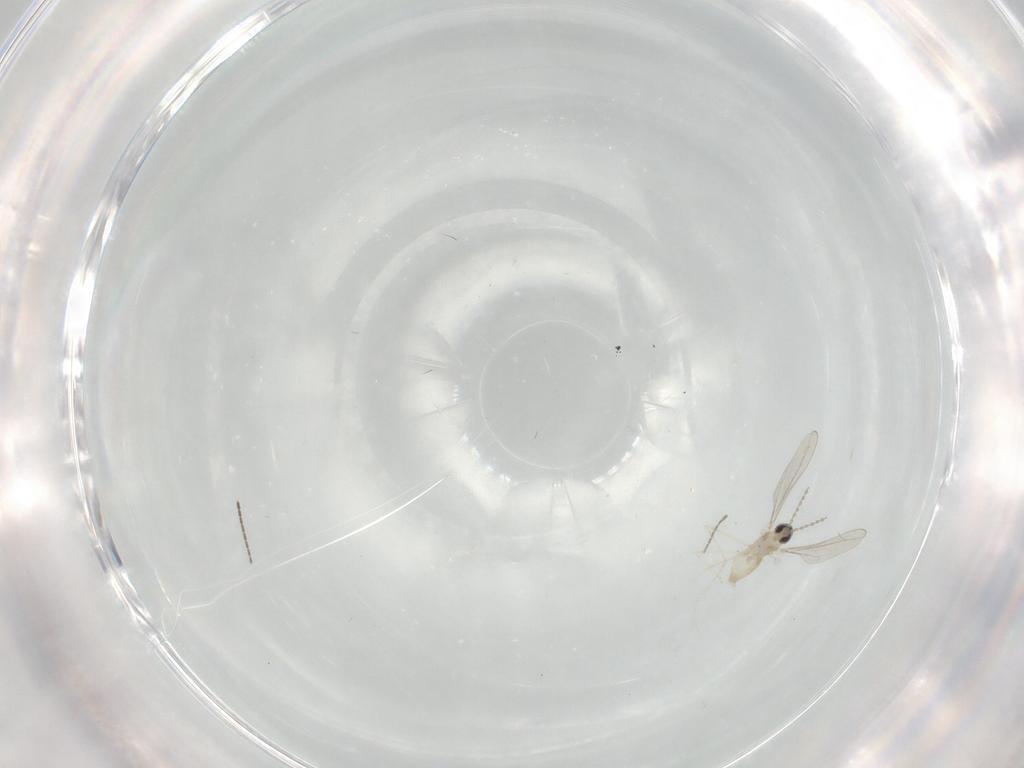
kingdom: Animalia
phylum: Arthropoda
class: Insecta
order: Diptera
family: Cecidomyiidae
